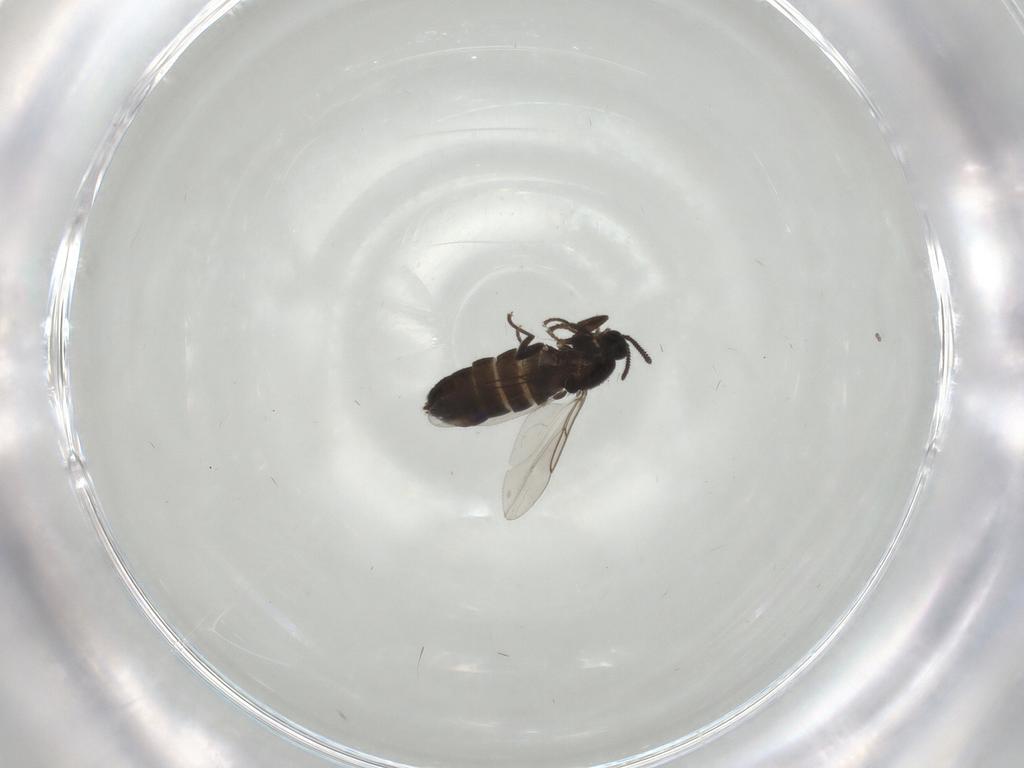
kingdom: Animalia
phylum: Arthropoda
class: Insecta
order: Diptera
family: Scatopsidae
